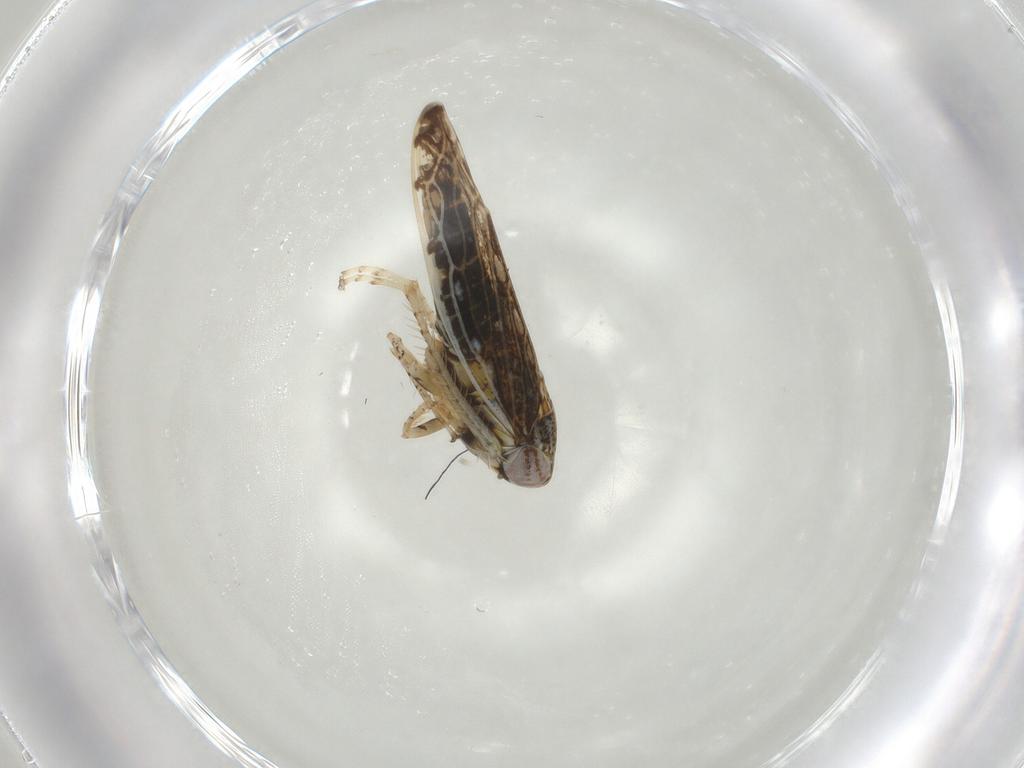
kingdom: Animalia
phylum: Arthropoda
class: Insecta
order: Hemiptera
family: Cicadellidae
